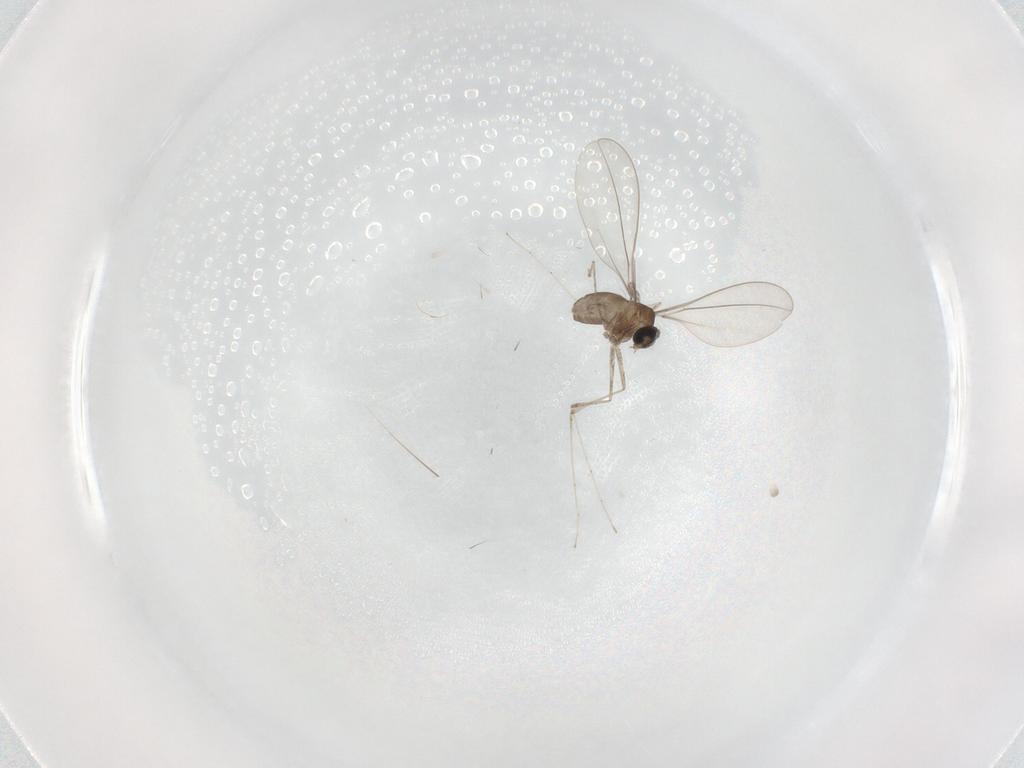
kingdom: Animalia
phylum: Arthropoda
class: Insecta
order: Diptera
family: Cecidomyiidae
